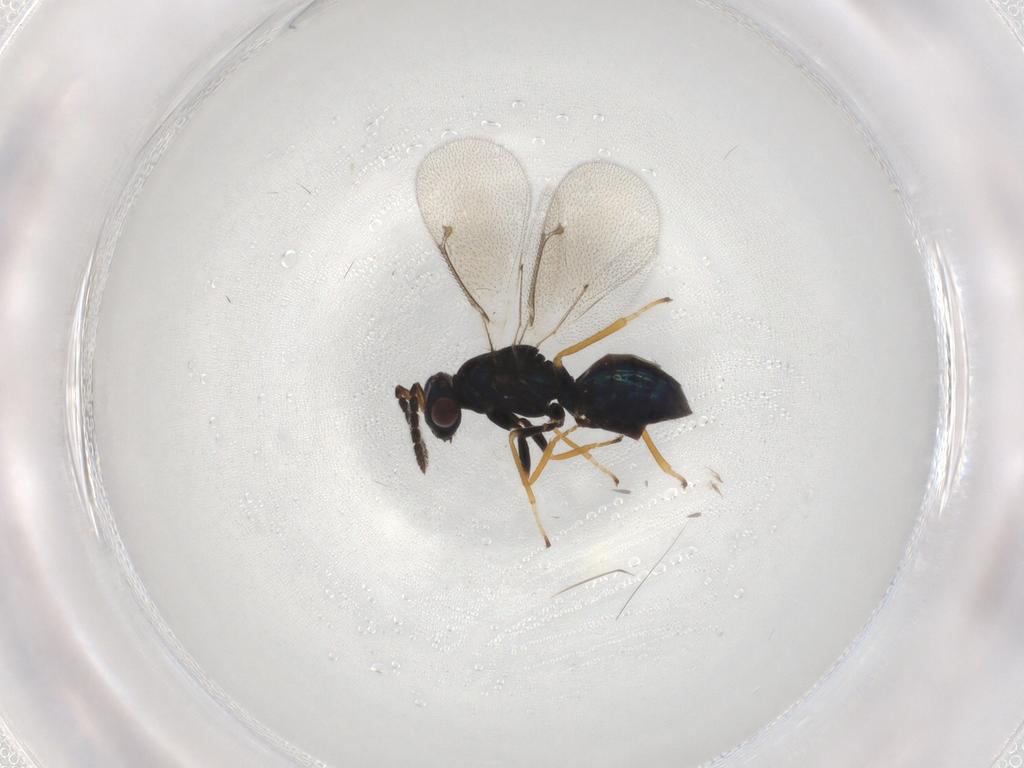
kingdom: Animalia
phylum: Arthropoda
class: Insecta
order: Hymenoptera
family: Eulophidae
